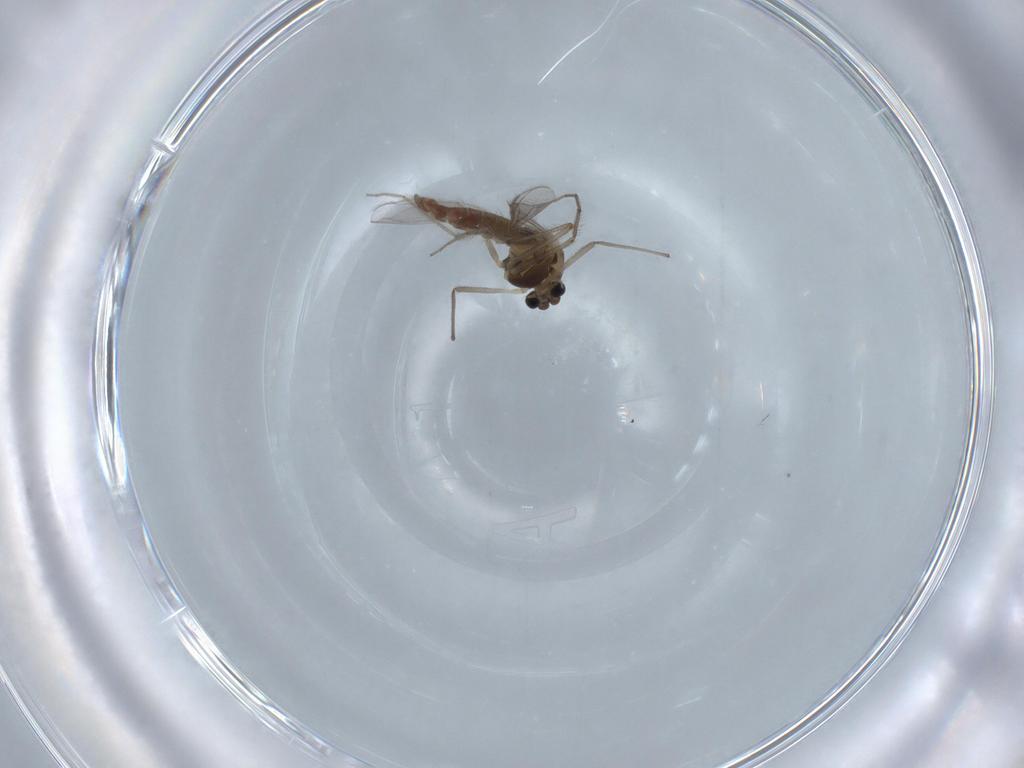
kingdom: Animalia
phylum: Arthropoda
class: Insecta
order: Diptera
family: Chironomidae
